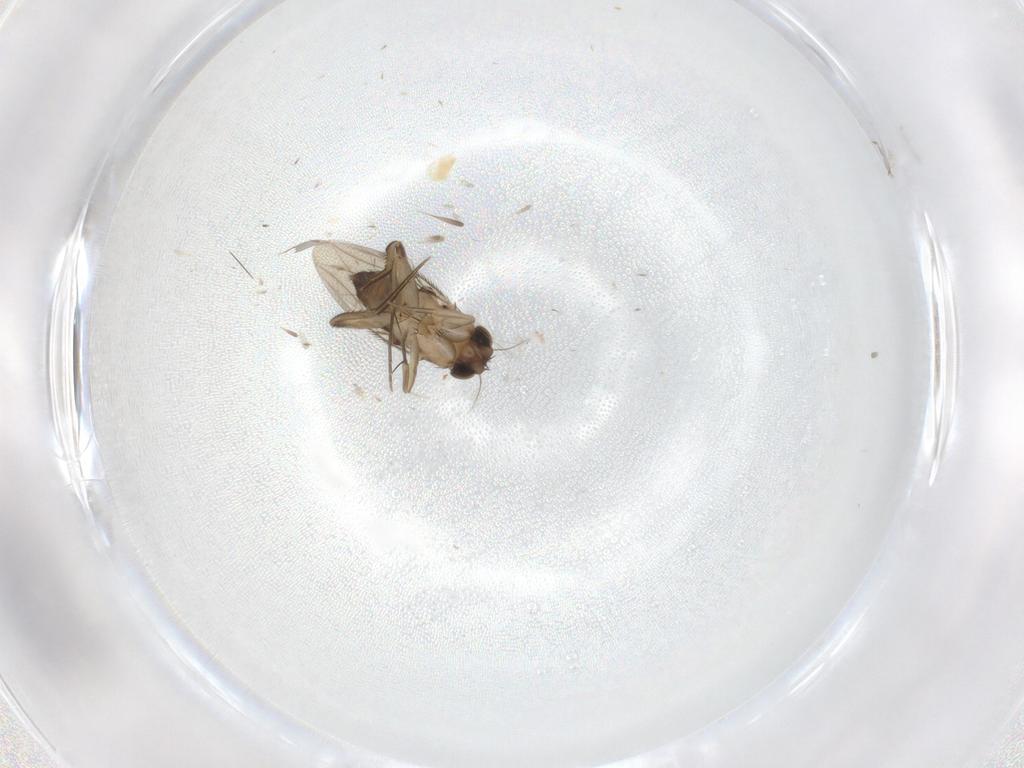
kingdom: Animalia
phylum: Arthropoda
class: Insecta
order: Diptera
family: Phoridae
